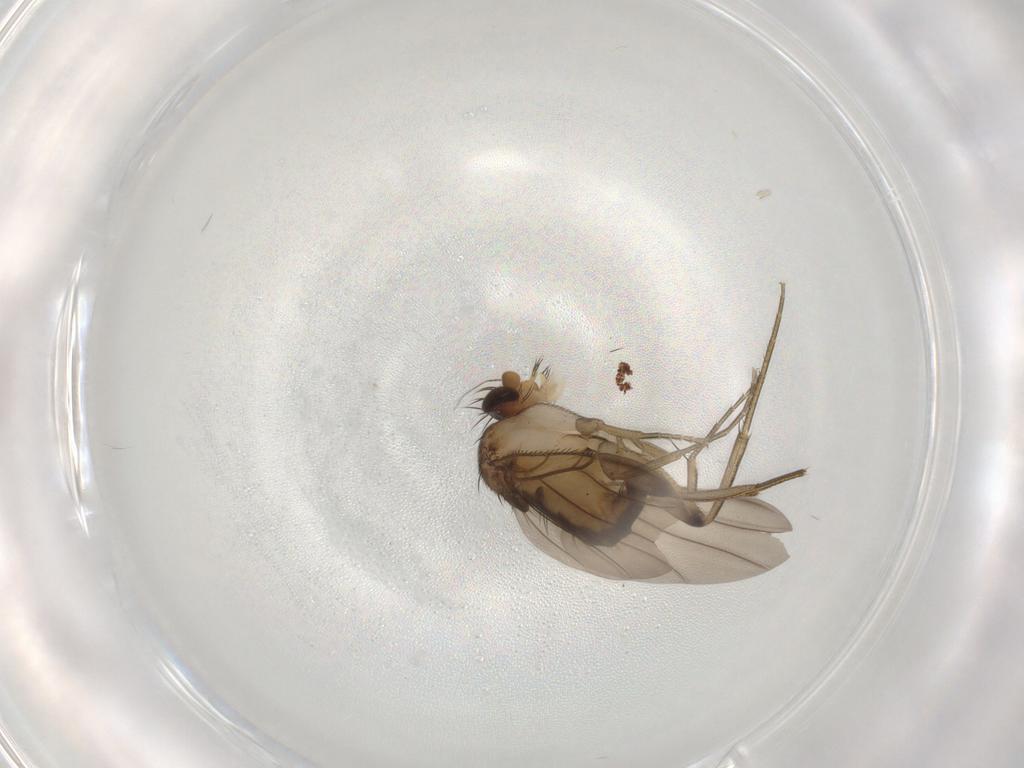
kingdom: Animalia
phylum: Arthropoda
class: Insecta
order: Diptera
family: Phoridae
